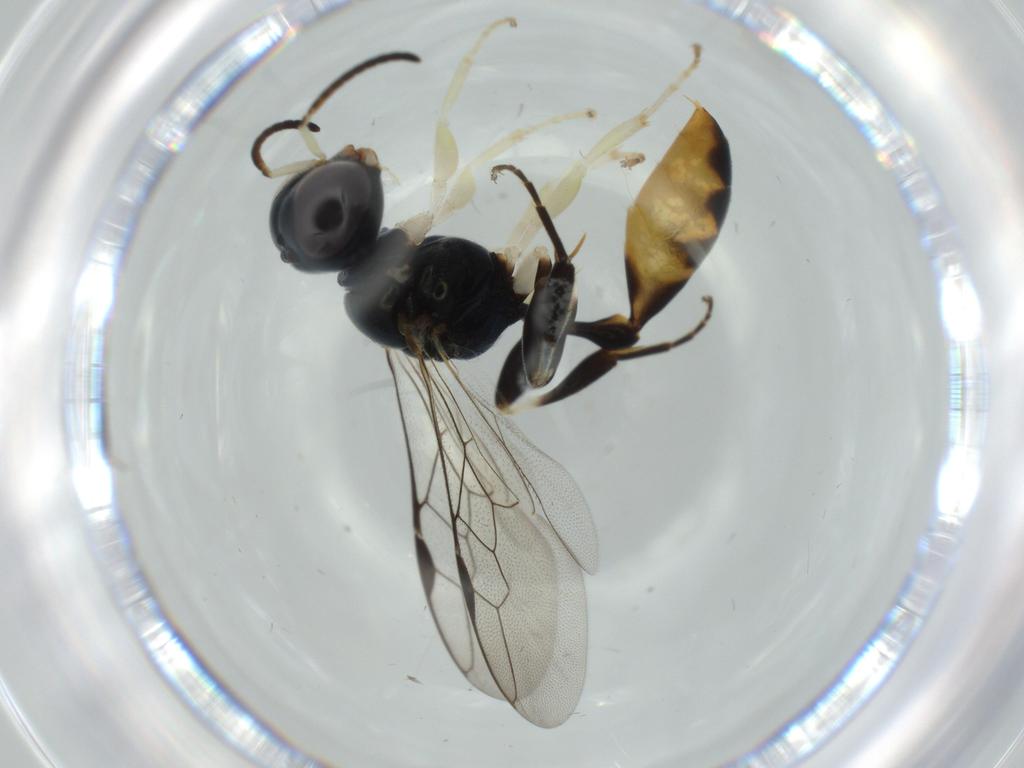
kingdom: Animalia
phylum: Arthropoda
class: Insecta
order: Hymenoptera
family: Crabronidae
